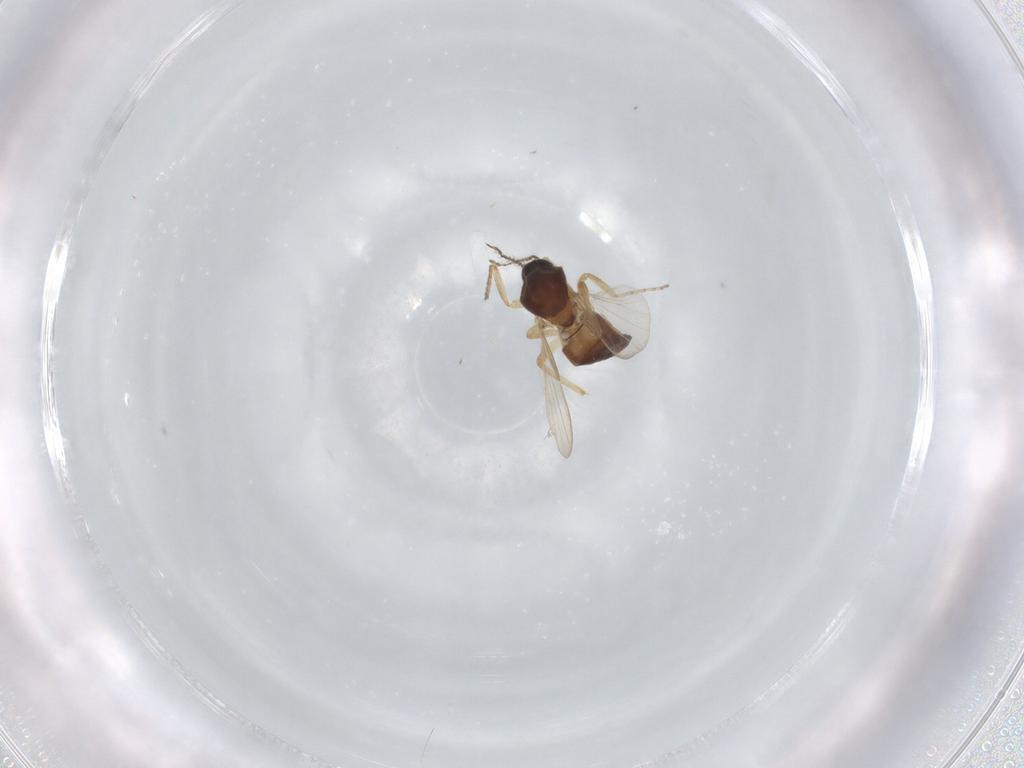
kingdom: Animalia
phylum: Arthropoda
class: Insecta
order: Diptera
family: Ceratopogonidae
